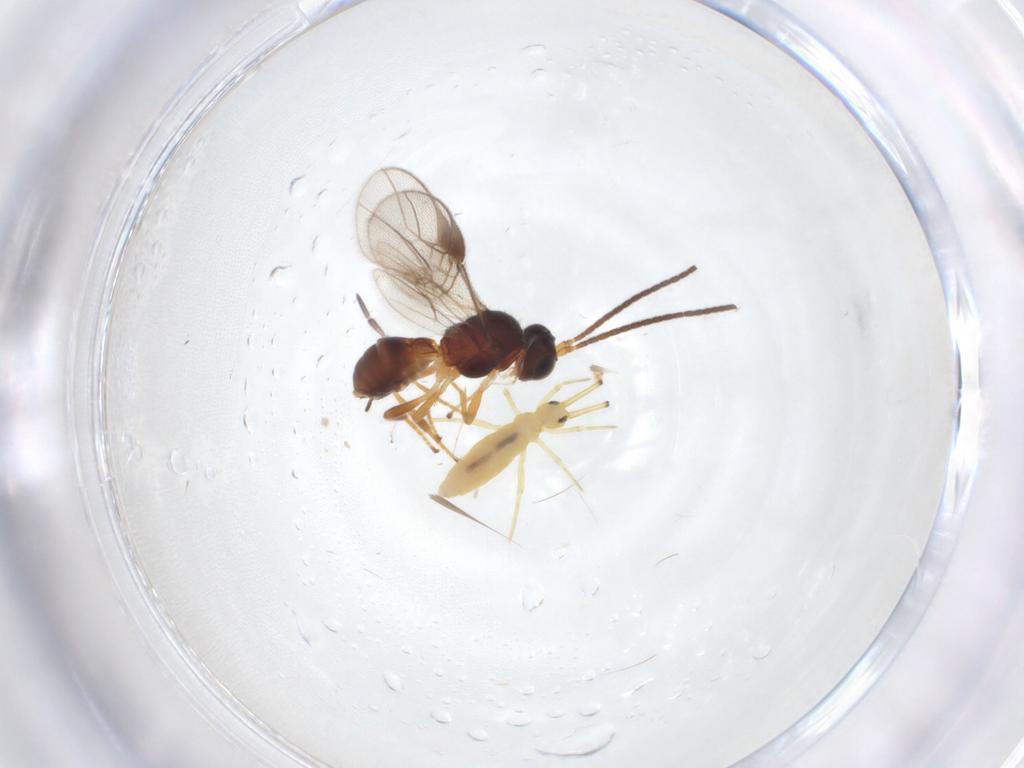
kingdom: Animalia
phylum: Arthropoda
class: Insecta
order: Hymenoptera
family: Braconidae
